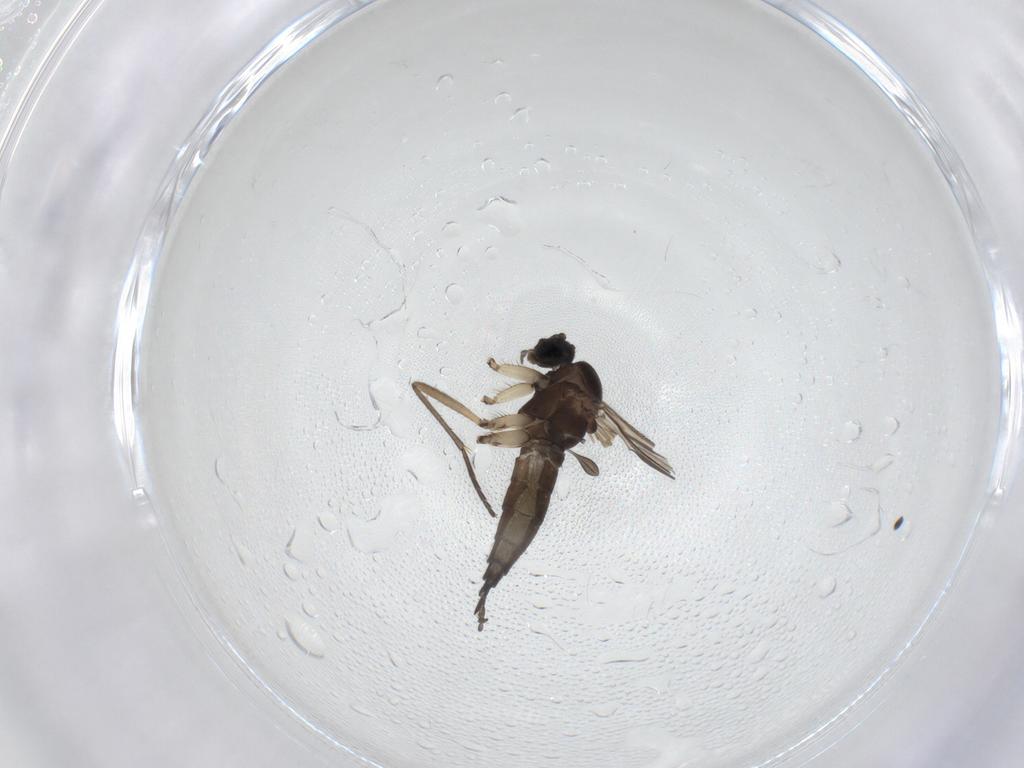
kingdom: Animalia
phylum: Arthropoda
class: Insecta
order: Diptera
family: Sciaridae
